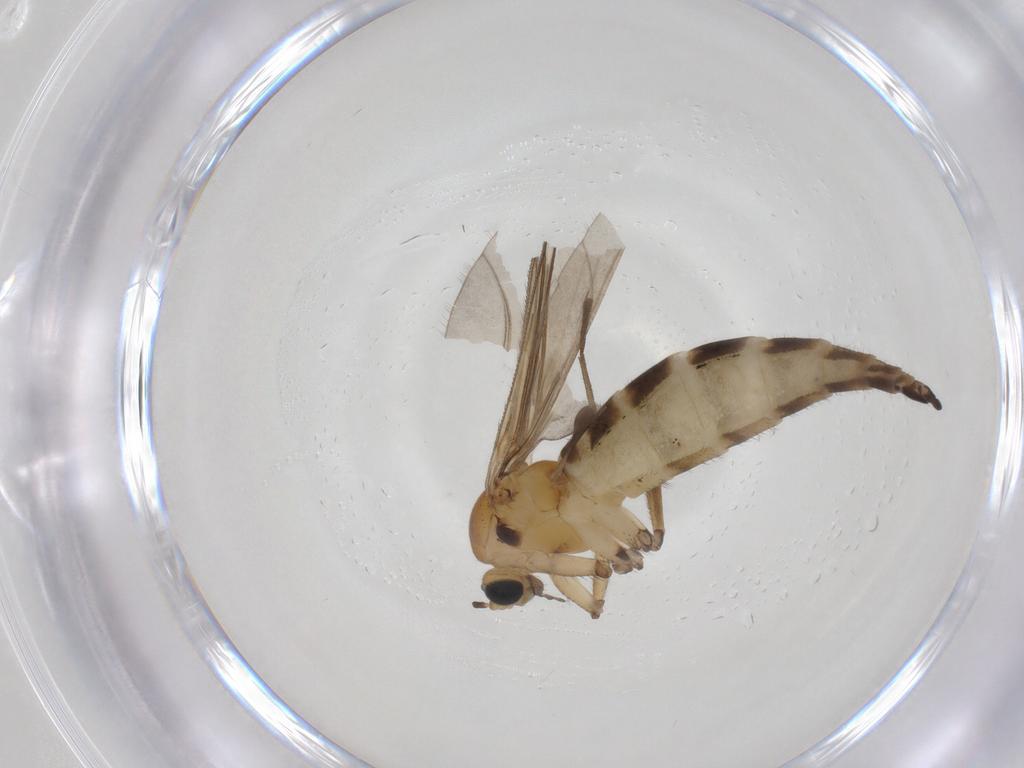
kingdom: Animalia
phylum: Arthropoda
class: Insecta
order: Diptera
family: Sciaridae
